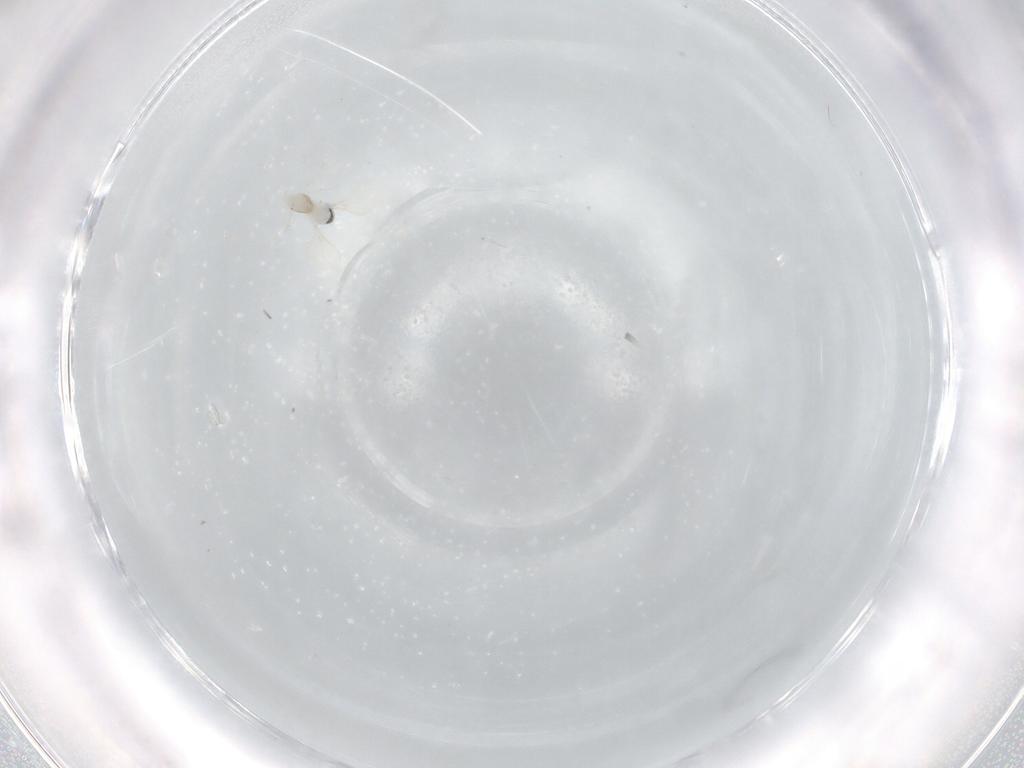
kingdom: Animalia
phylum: Arthropoda
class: Insecta
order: Diptera
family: Cecidomyiidae
